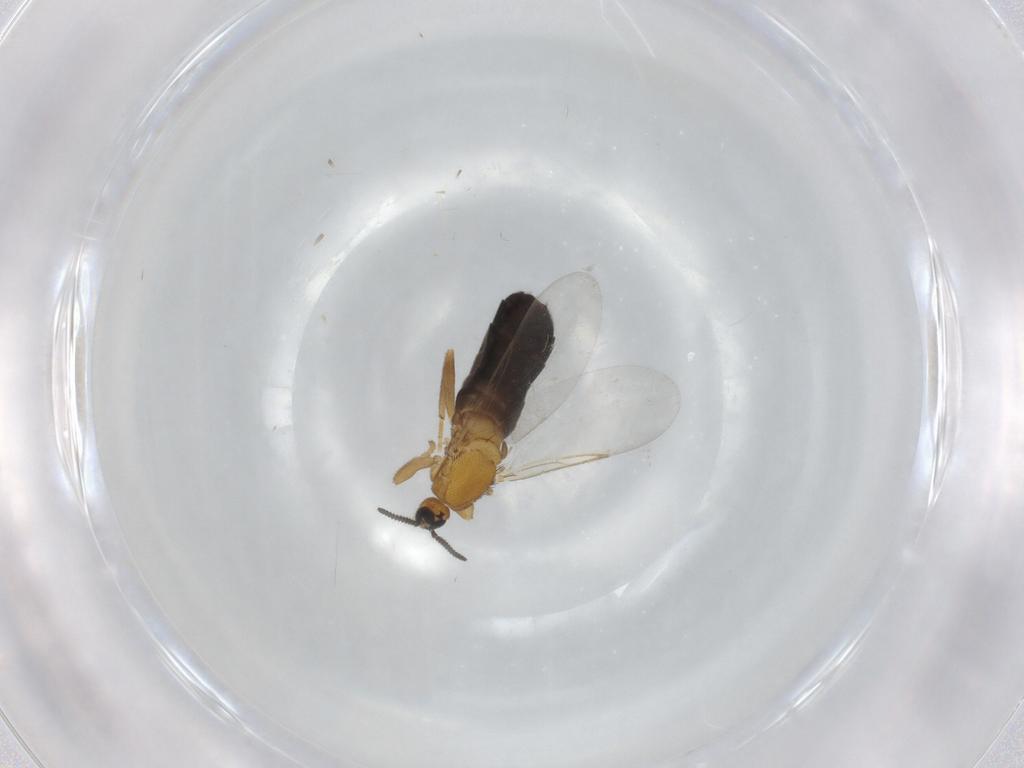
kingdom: Animalia
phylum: Arthropoda
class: Insecta
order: Diptera
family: Scatopsidae
